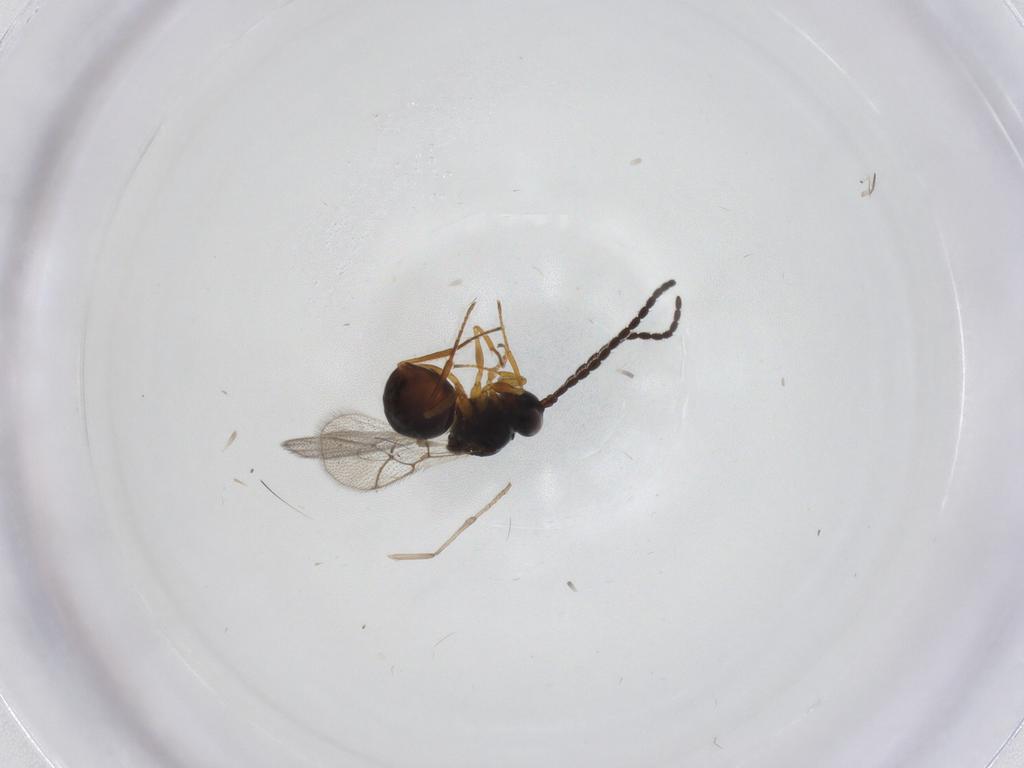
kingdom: Animalia
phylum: Arthropoda
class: Insecta
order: Hymenoptera
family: Figitidae
